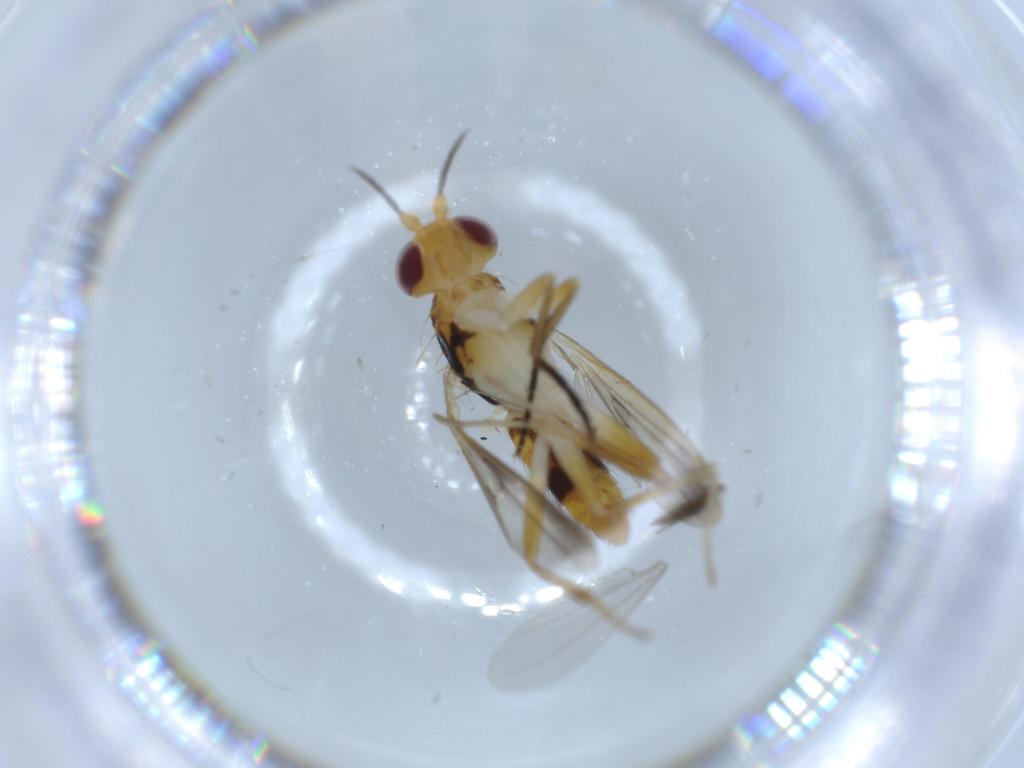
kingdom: Animalia
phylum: Arthropoda
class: Insecta
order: Diptera
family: Clusiidae
